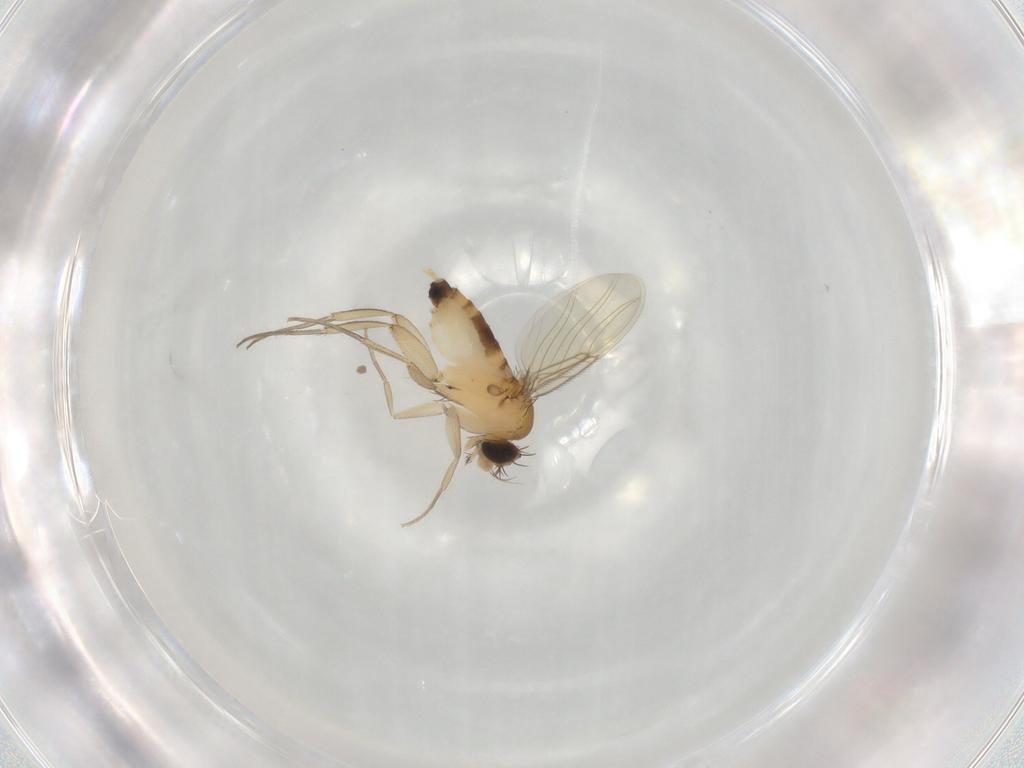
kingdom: Animalia
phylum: Arthropoda
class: Insecta
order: Diptera
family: Phoridae
